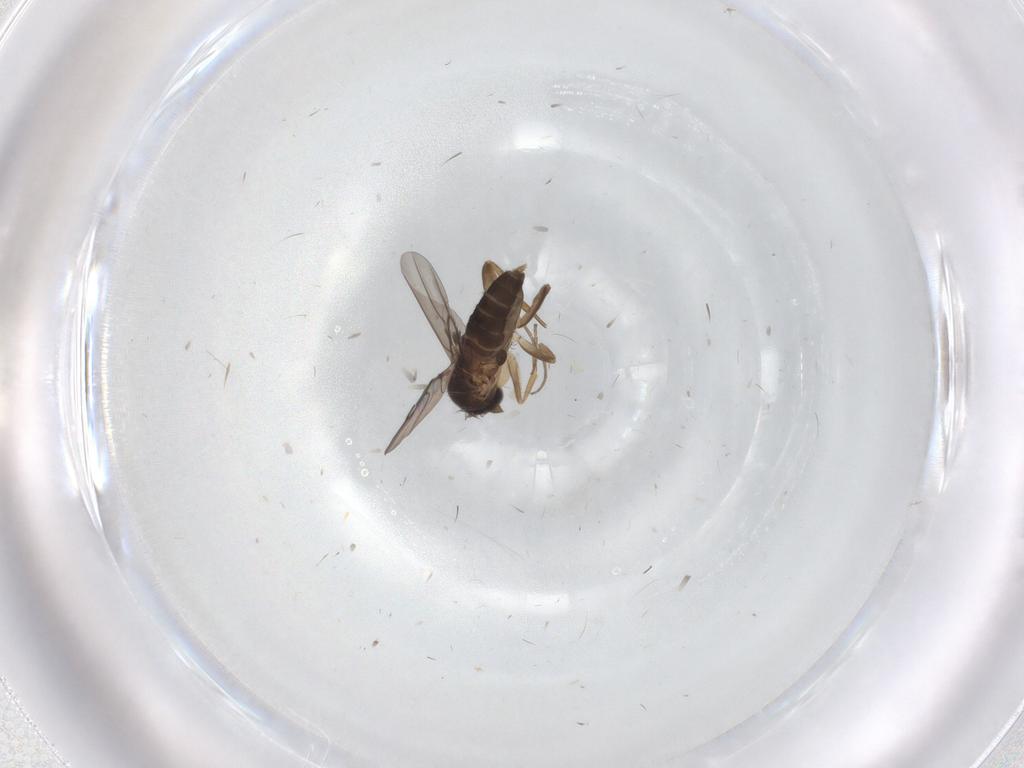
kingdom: Animalia
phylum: Arthropoda
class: Insecta
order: Diptera
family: Phoridae
